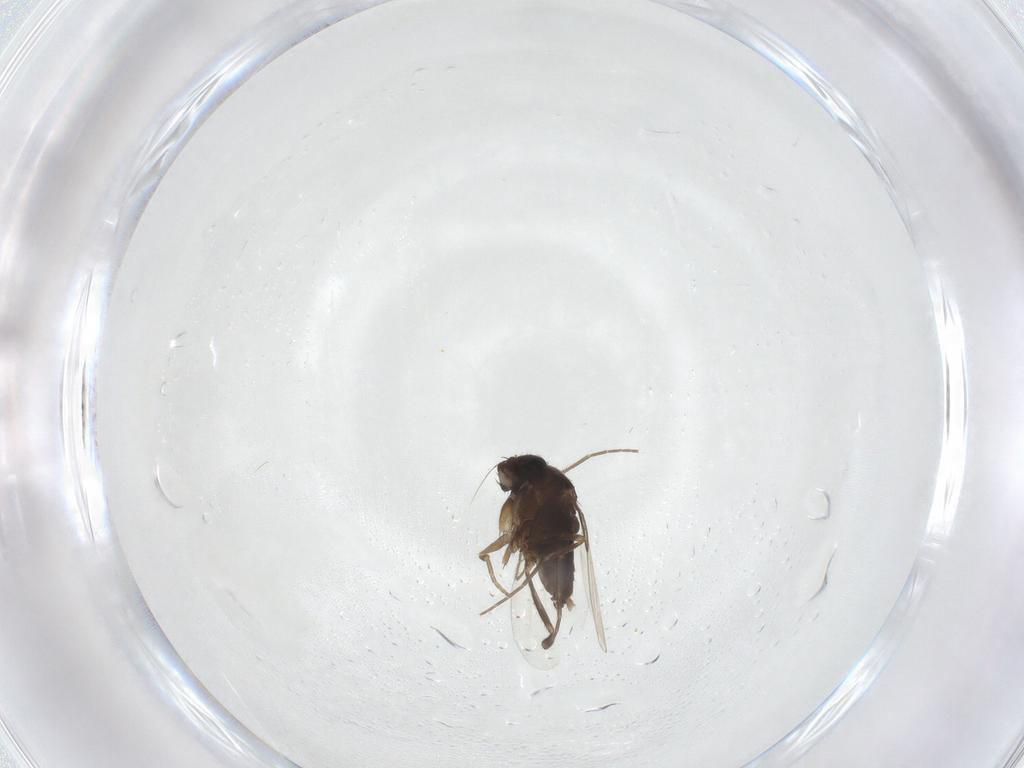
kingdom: Animalia
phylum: Arthropoda
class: Insecta
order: Diptera
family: Phoridae
